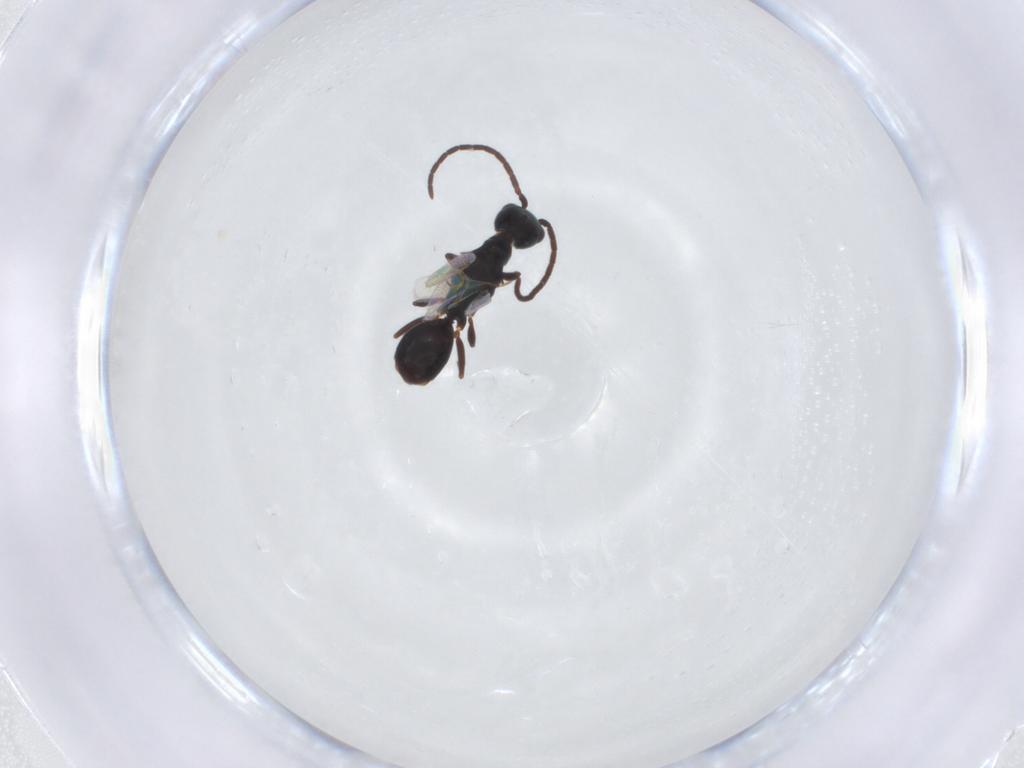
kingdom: Animalia
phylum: Arthropoda
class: Insecta
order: Hymenoptera
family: Bethylidae
